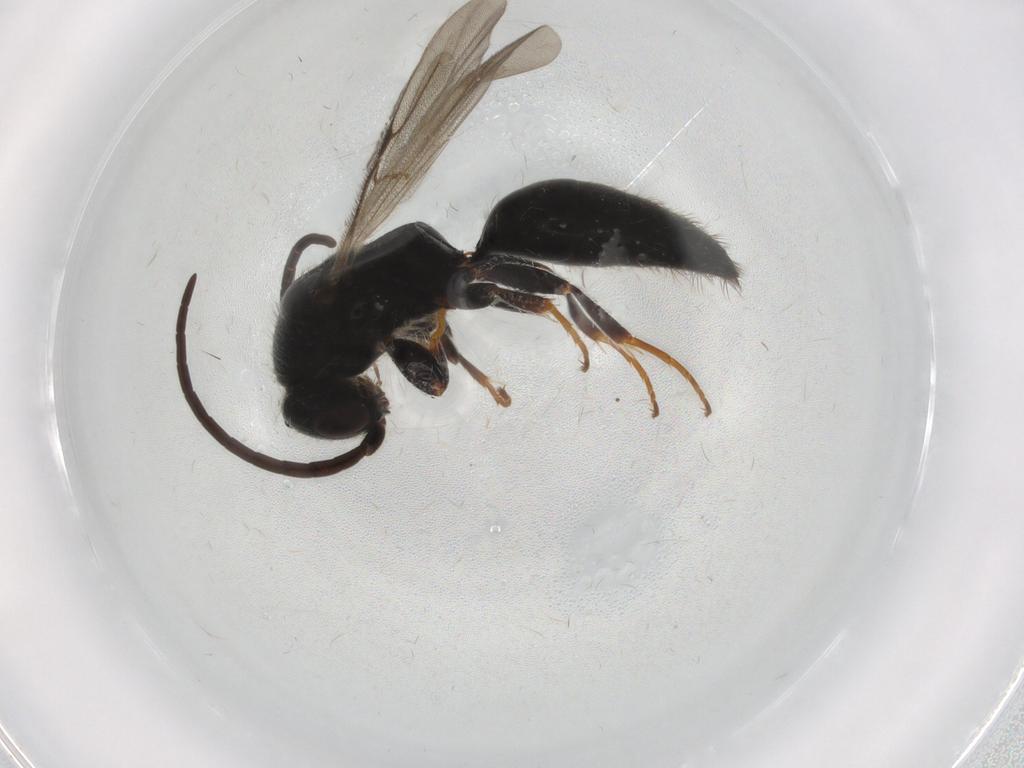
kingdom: Animalia
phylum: Arthropoda
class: Insecta
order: Hymenoptera
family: Bethylidae
